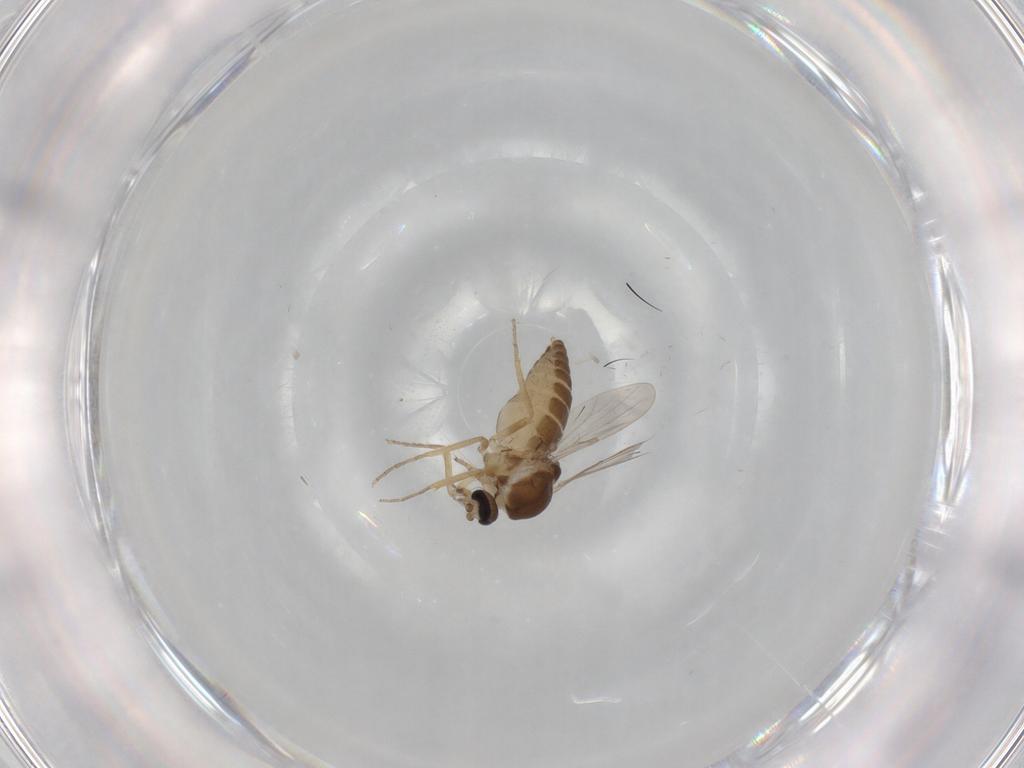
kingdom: Animalia
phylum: Arthropoda
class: Insecta
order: Diptera
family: Ceratopogonidae
